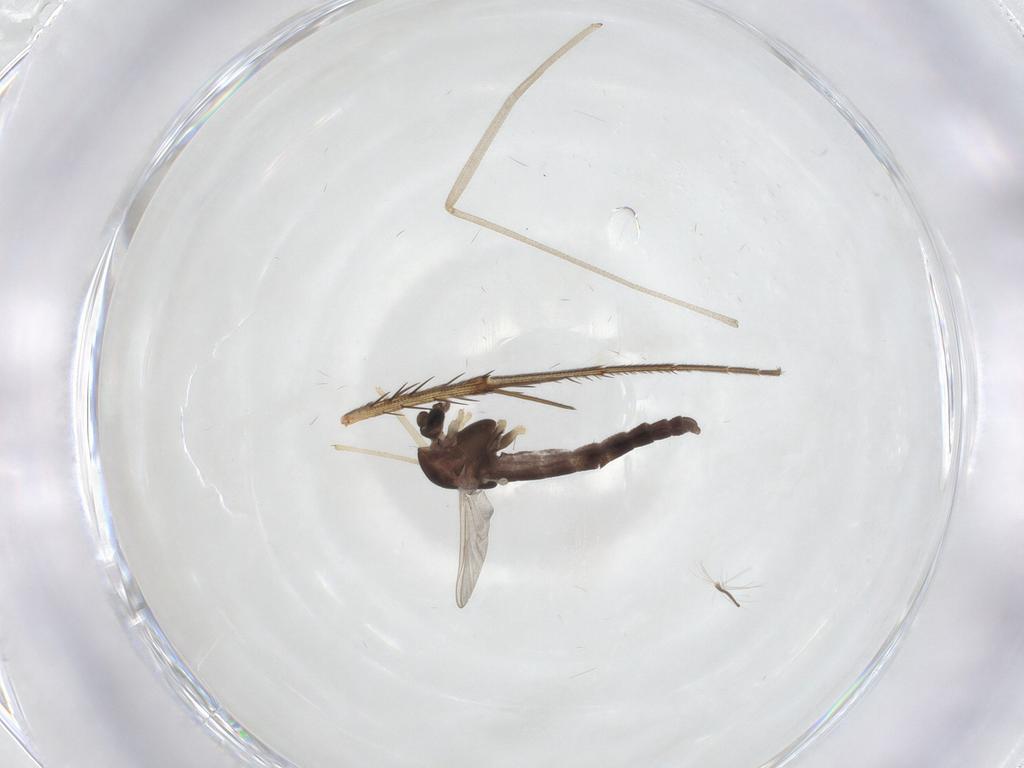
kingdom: Animalia
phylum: Arthropoda
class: Insecta
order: Diptera
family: Chironomidae
